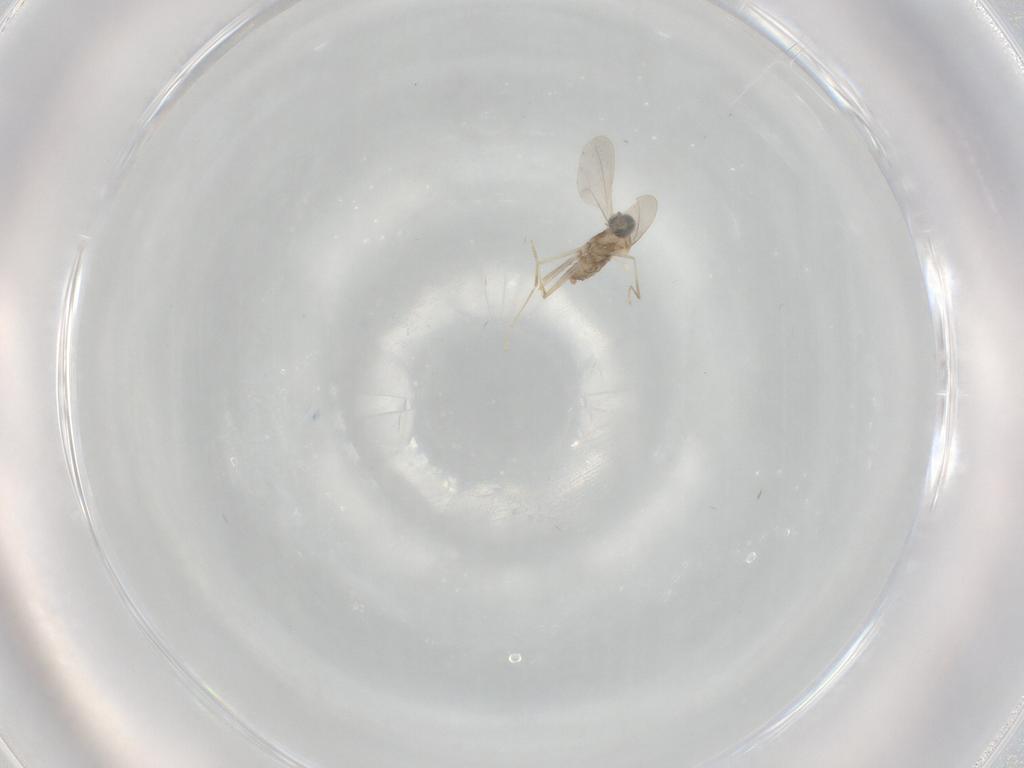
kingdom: Animalia
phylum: Arthropoda
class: Insecta
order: Diptera
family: Cecidomyiidae
